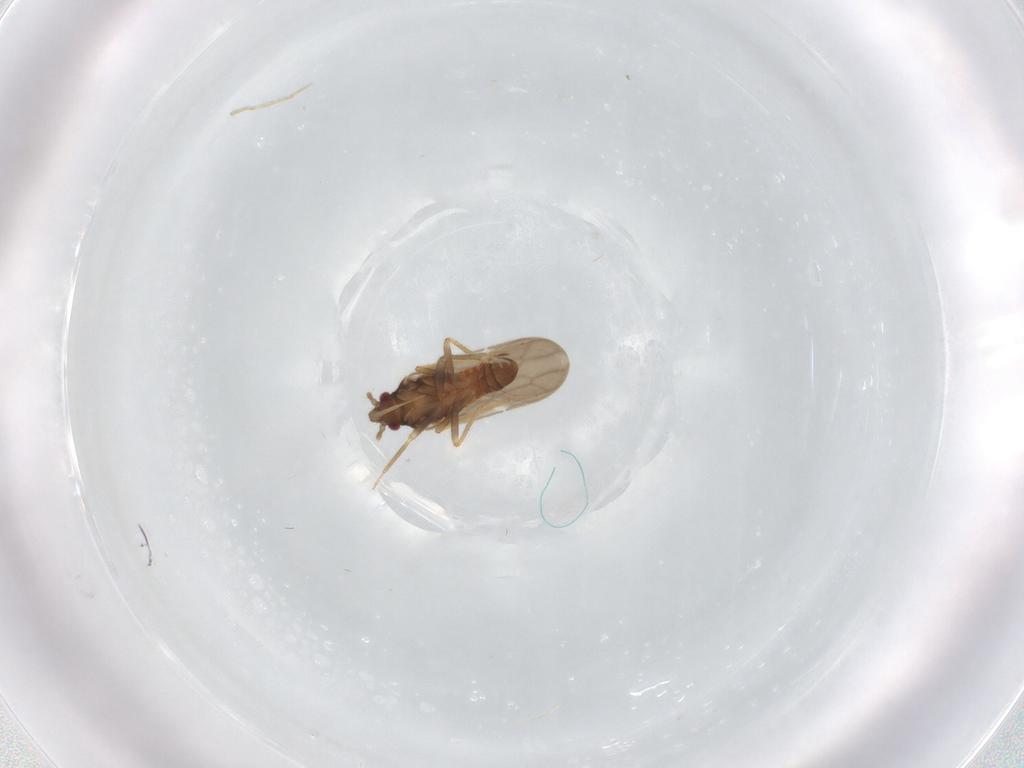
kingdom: Animalia
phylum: Arthropoda
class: Insecta
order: Hemiptera
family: Ceratocombidae
